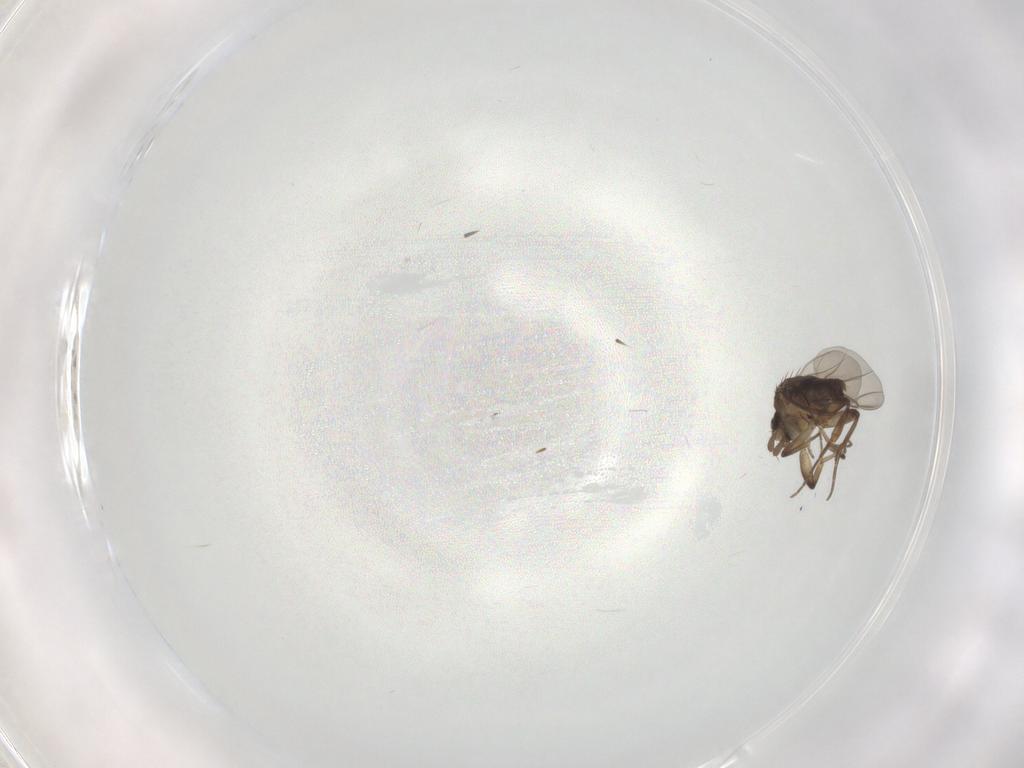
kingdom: Animalia
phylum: Arthropoda
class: Insecta
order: Diptera
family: Phoridae
